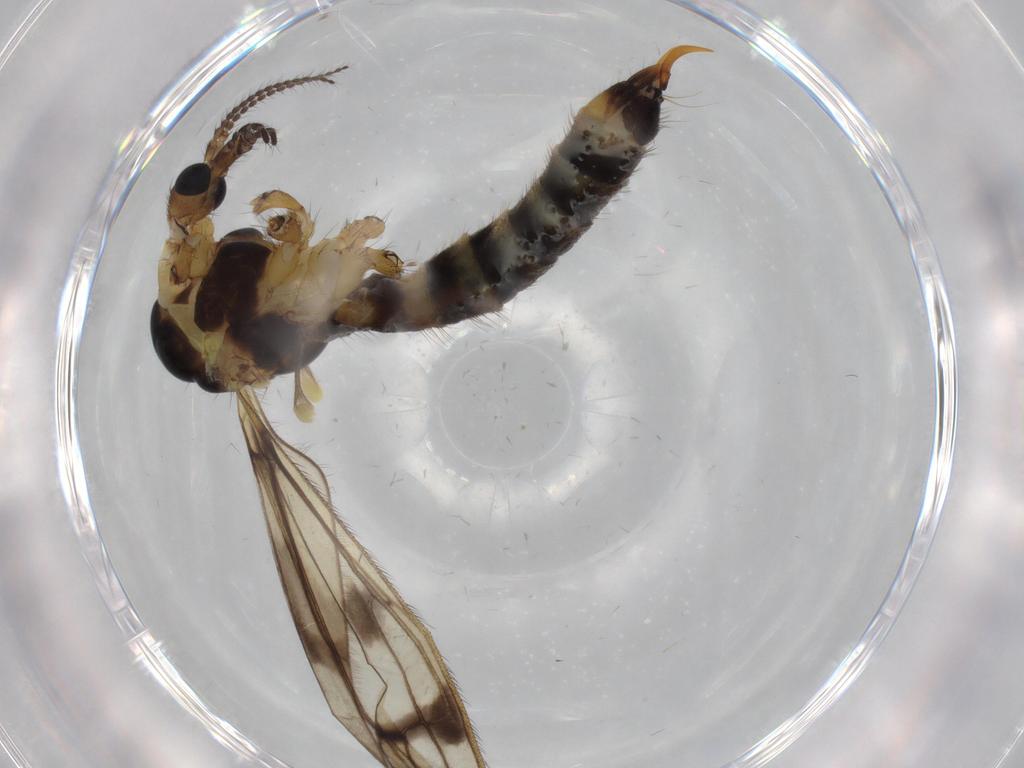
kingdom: Animalia
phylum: Arthropoda
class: Insecta
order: Diptera
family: Limoniidae
